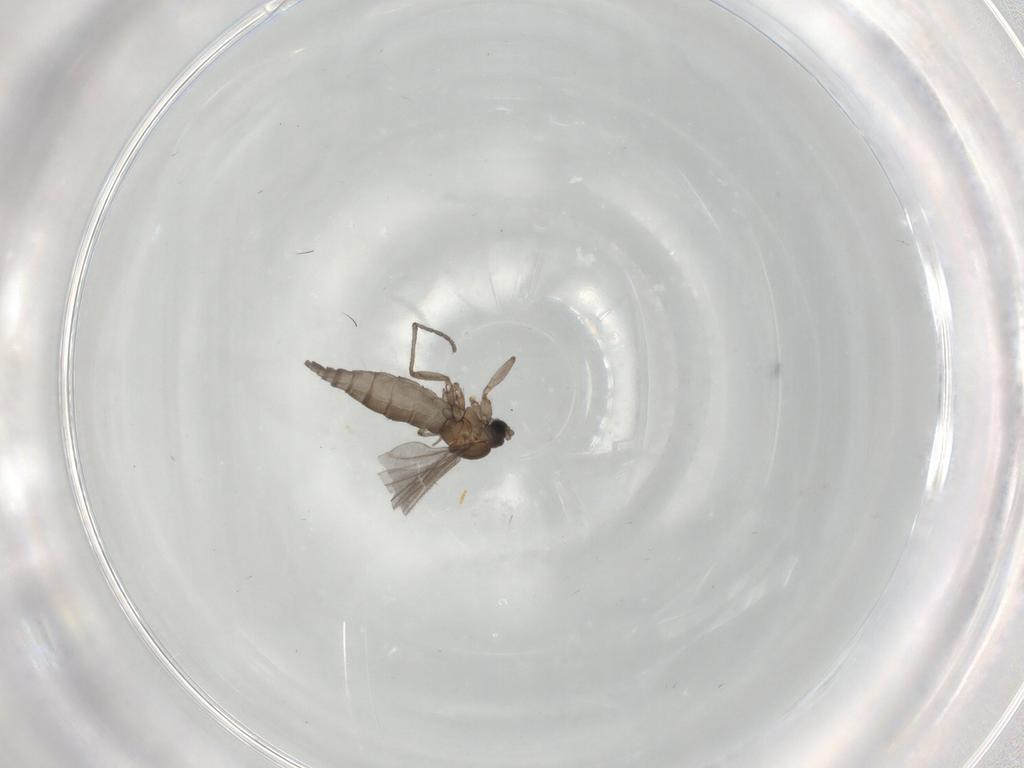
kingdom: Animalia
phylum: Arthropoda
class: Insecta
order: Diptera
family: Sciaridae
